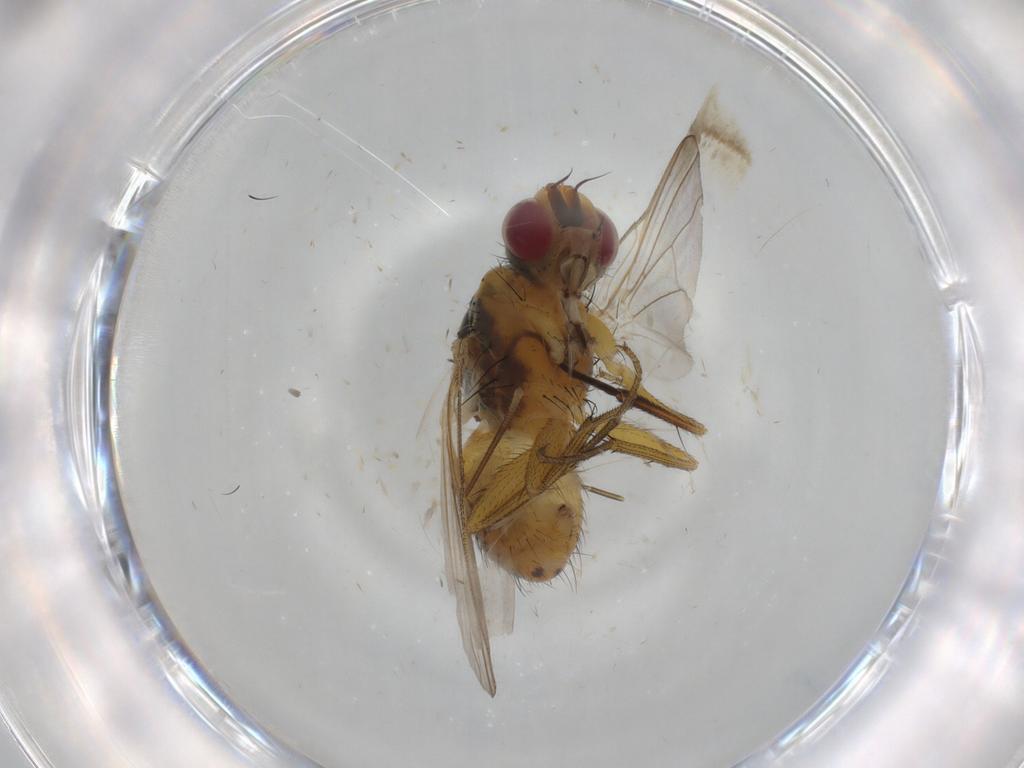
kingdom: Animalia
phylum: Arthropoda
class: Insecta
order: Diptera
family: Muscidae
